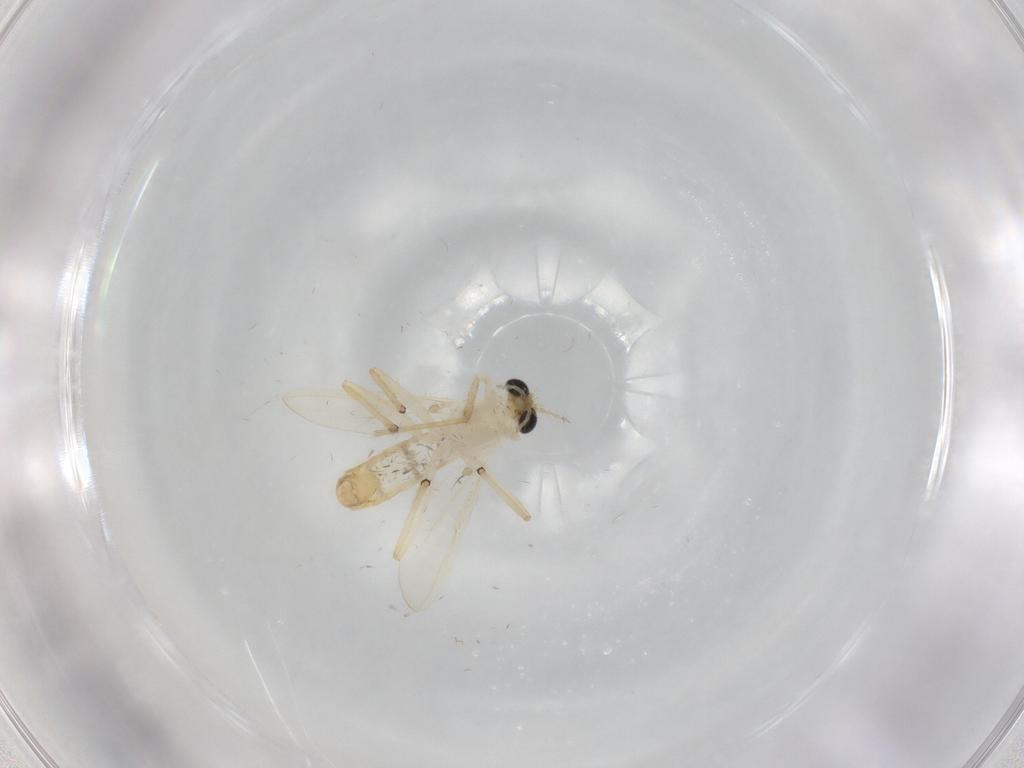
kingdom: Animalia
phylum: Arthropoda
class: Insecta
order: Diptera
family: Chironomidae
